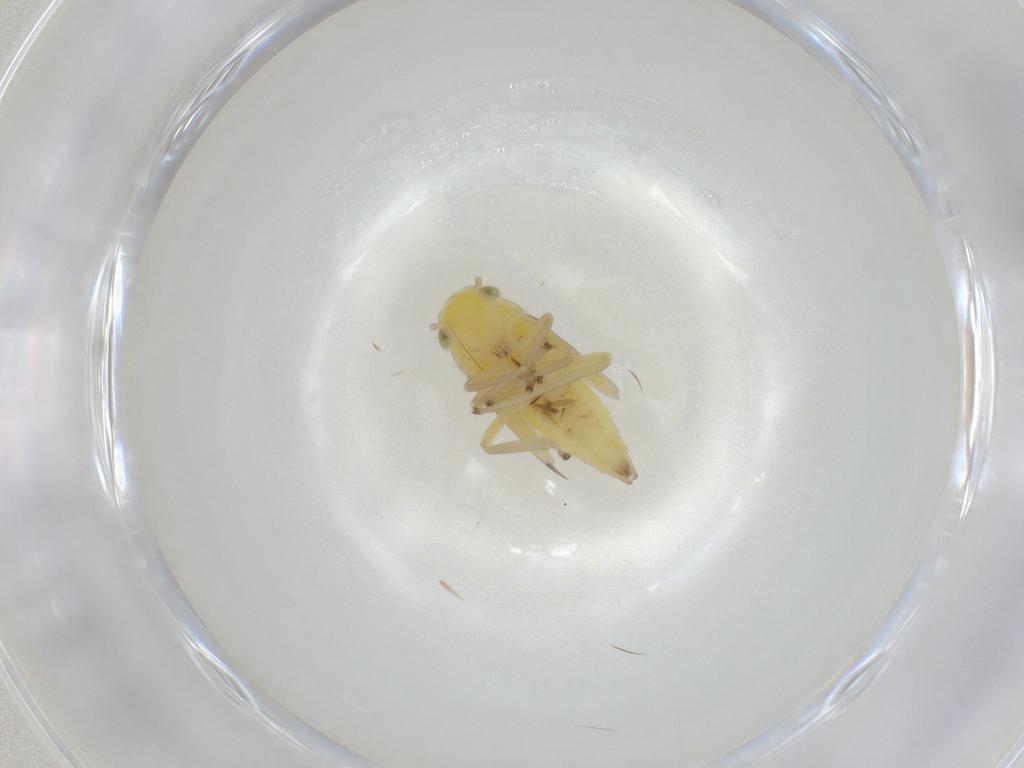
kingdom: Animalia
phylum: Arthropoda
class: Insecta
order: Hemiptera
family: Cicadellidae
